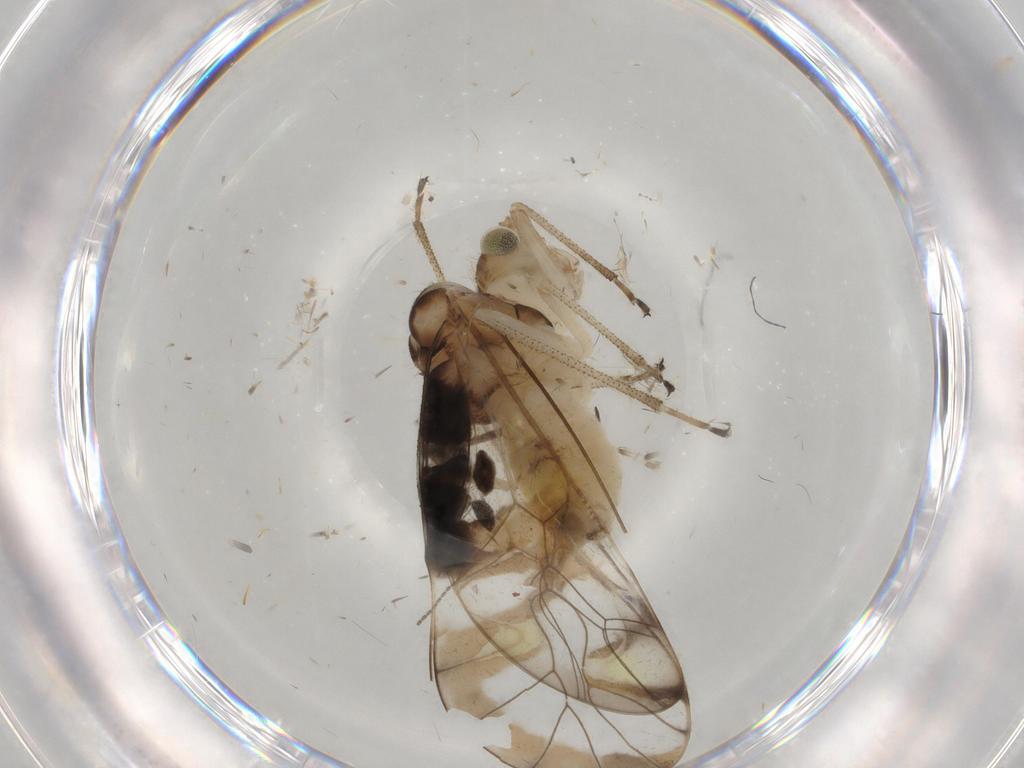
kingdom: Animalia
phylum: Arthropoda
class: Insecta
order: Psocodea
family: Amphipsocidae
